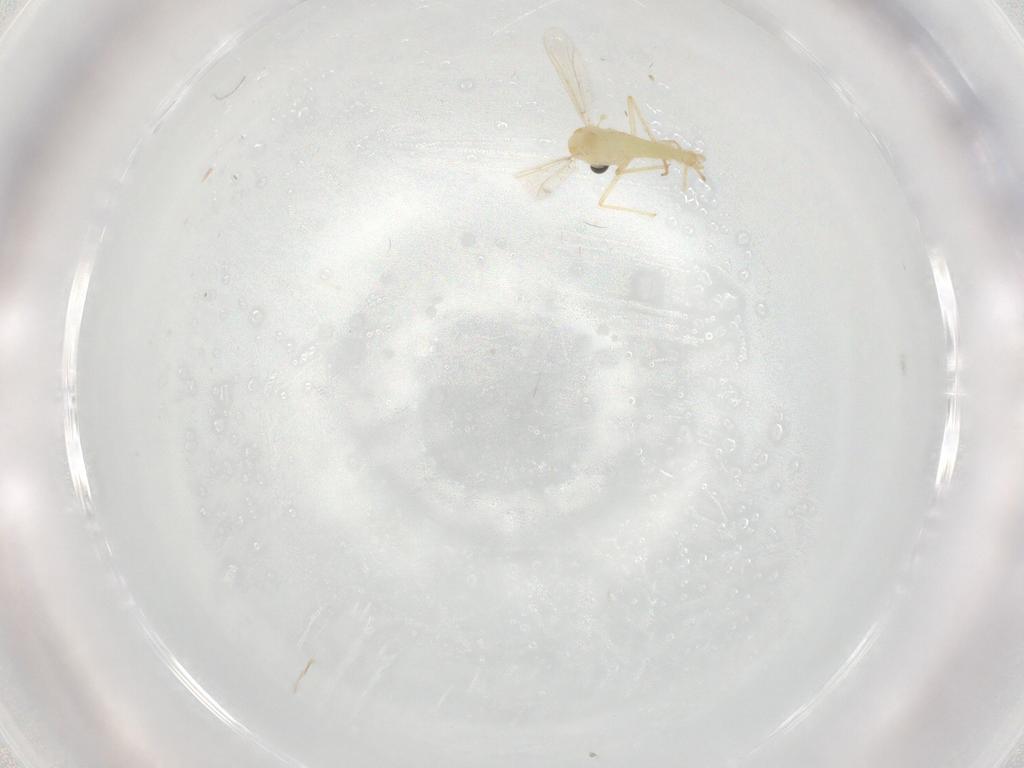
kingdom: Animalia
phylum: Arthropoda
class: Insecta
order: Diptera
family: Chironomidae
